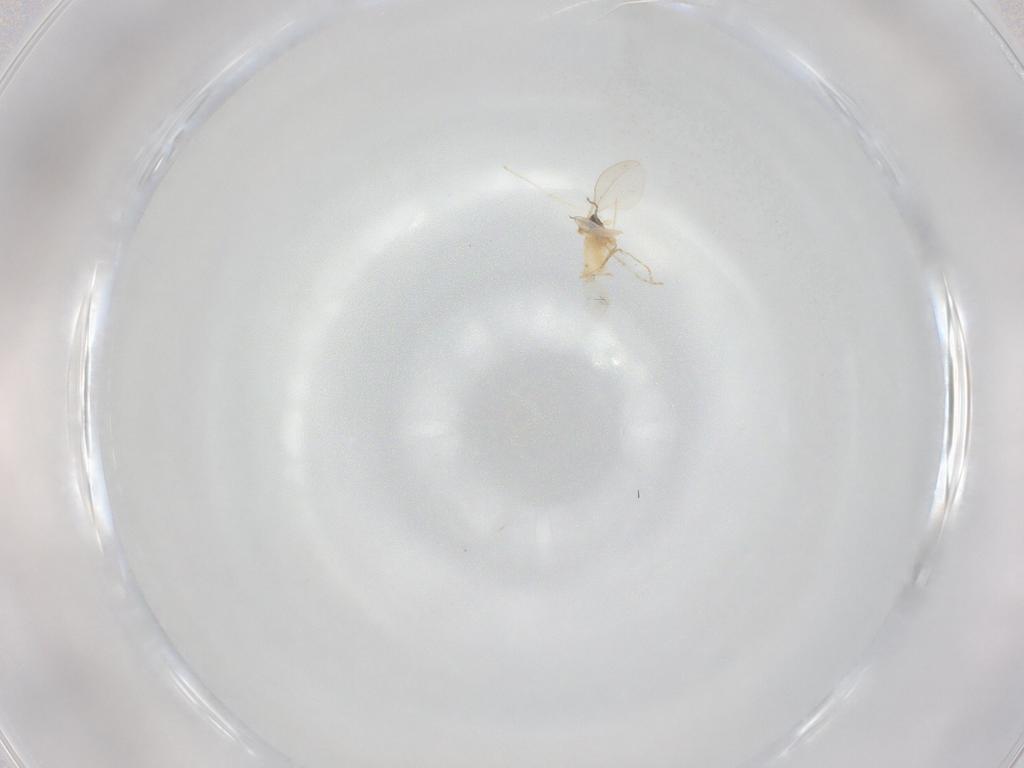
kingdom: Animalia
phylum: Arthropoda
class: Insecta
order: Diptera
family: Cecidomyiidae
